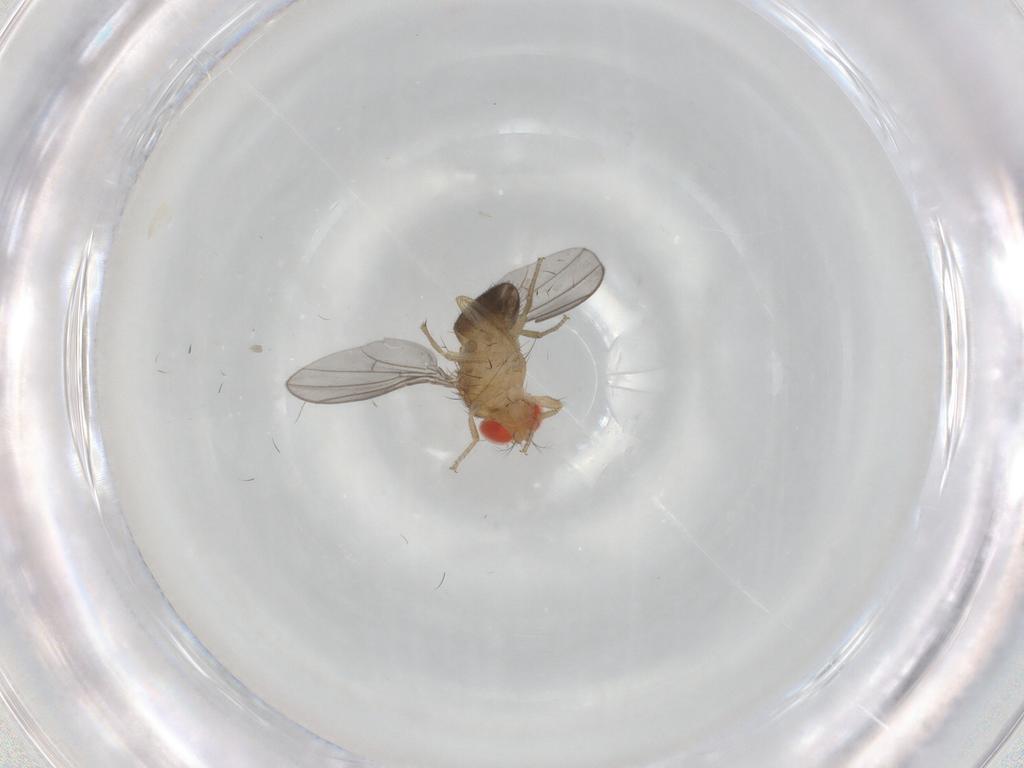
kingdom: Animalia
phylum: Arthropoda
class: Insecta
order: Diptera
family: Drosophilidae
